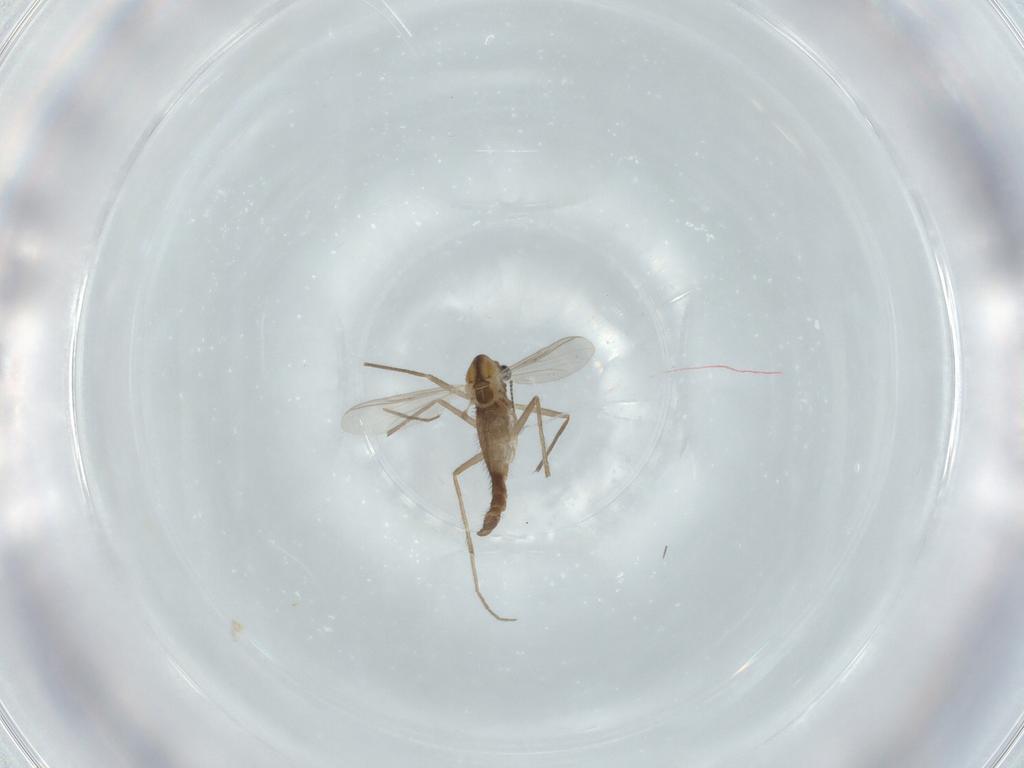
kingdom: Animalia
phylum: Arthropoda
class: Insecta
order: Diptera
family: Chironomidae
